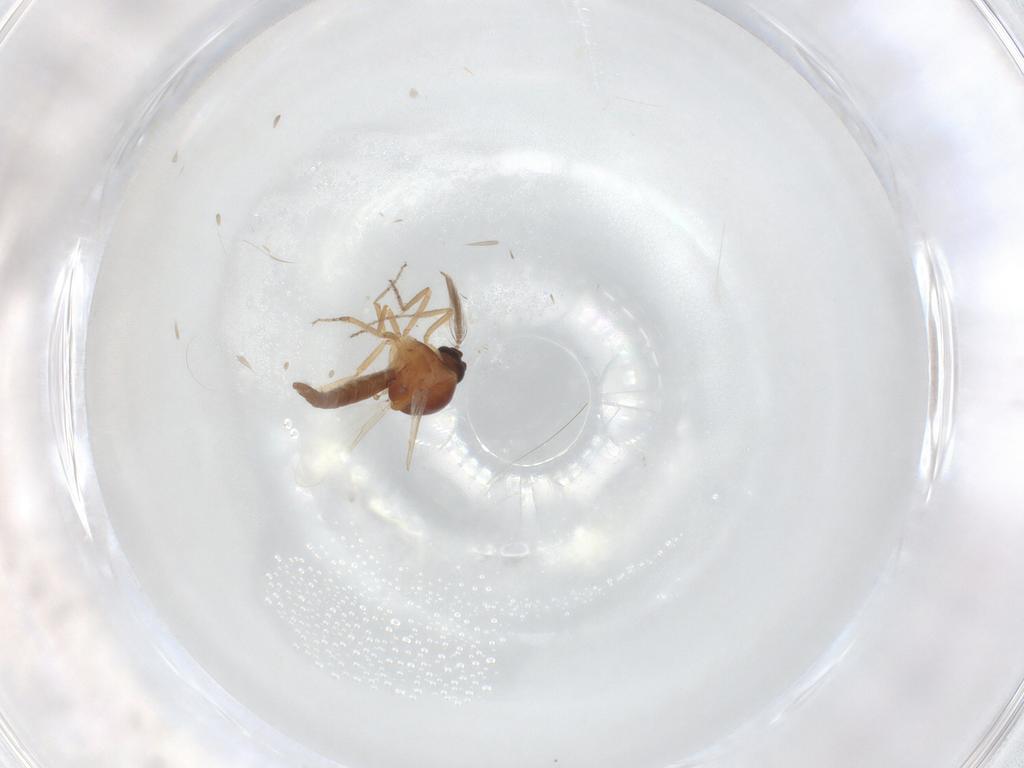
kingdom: Animalia
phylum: Arthropoda
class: Insecta
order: Diptera
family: Ceratopogonidae
